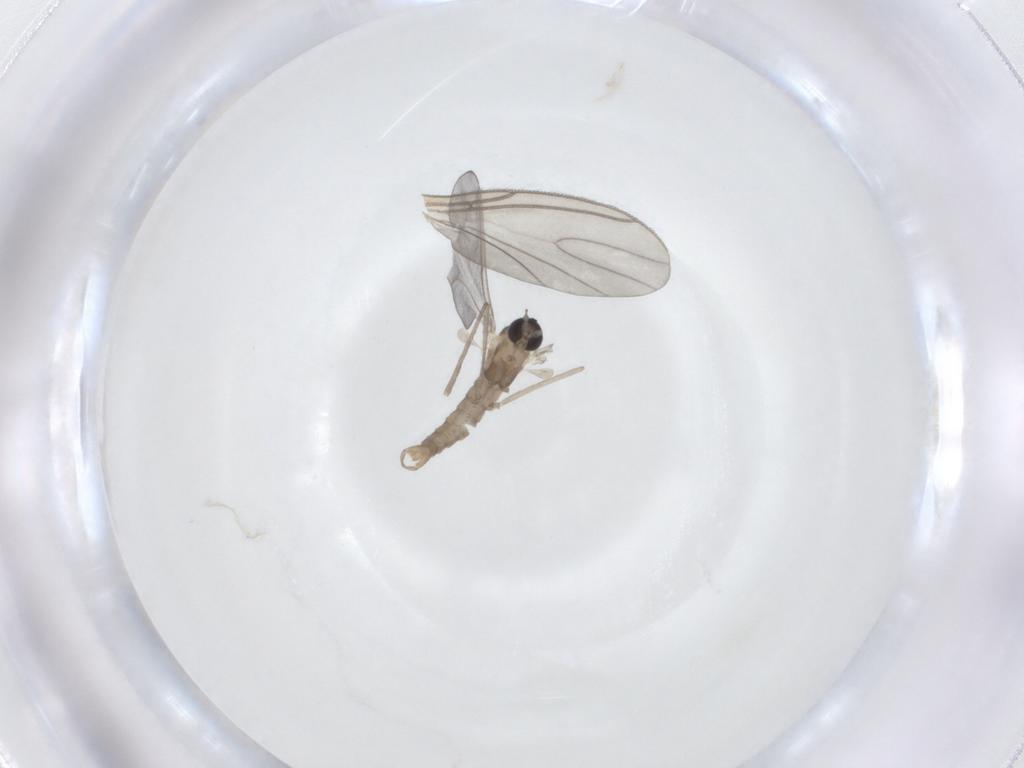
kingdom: Animalia
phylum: Arthropoda
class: Insecta
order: Diptera
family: Cecidomyiidae
